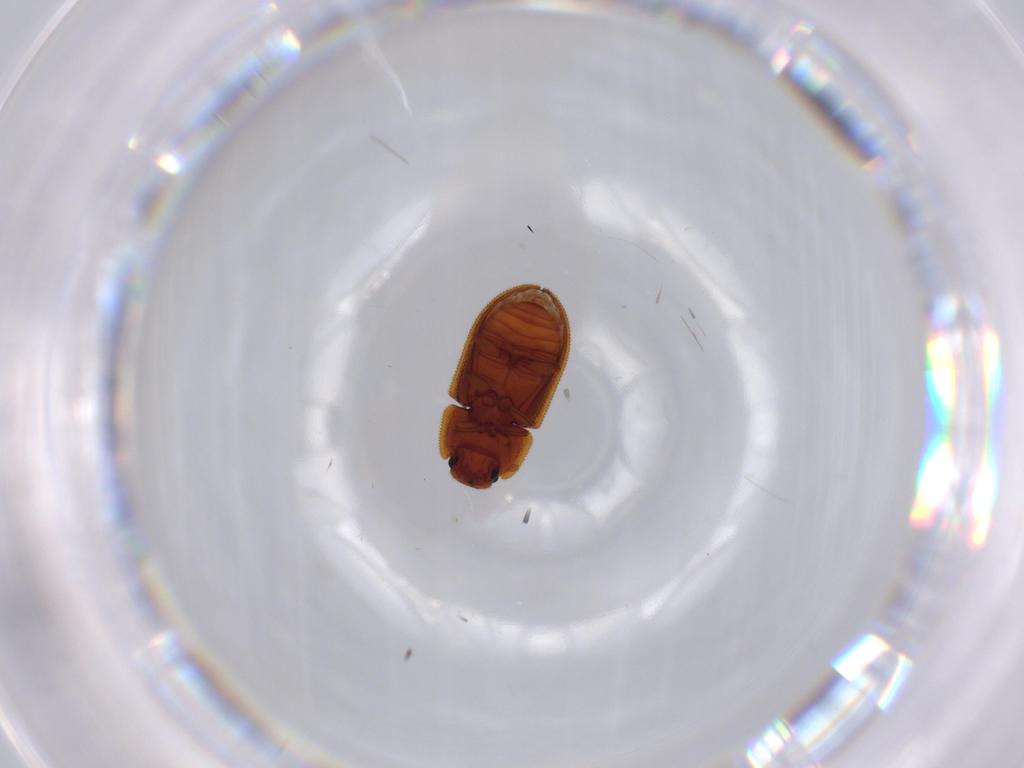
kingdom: Animalia
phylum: Arthropoda
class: Insecta
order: Coleoptera
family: Zopheridae
